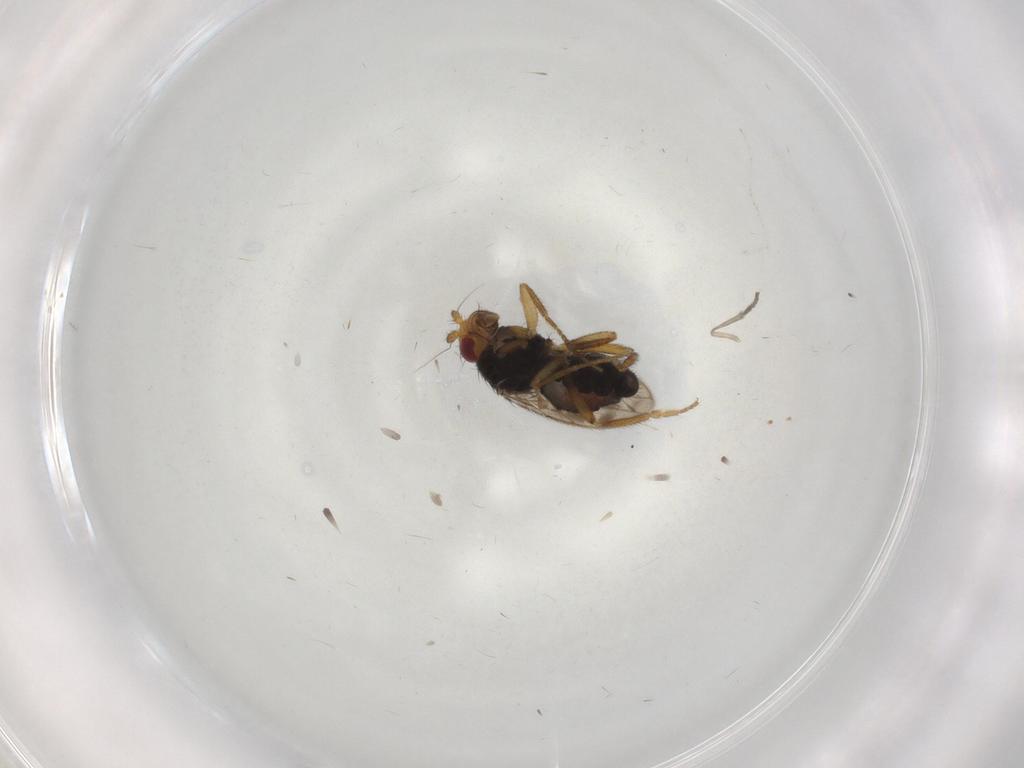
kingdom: Animalia
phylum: Arthropoda
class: Insecta
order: Diptera
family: Sphaeroceridae
